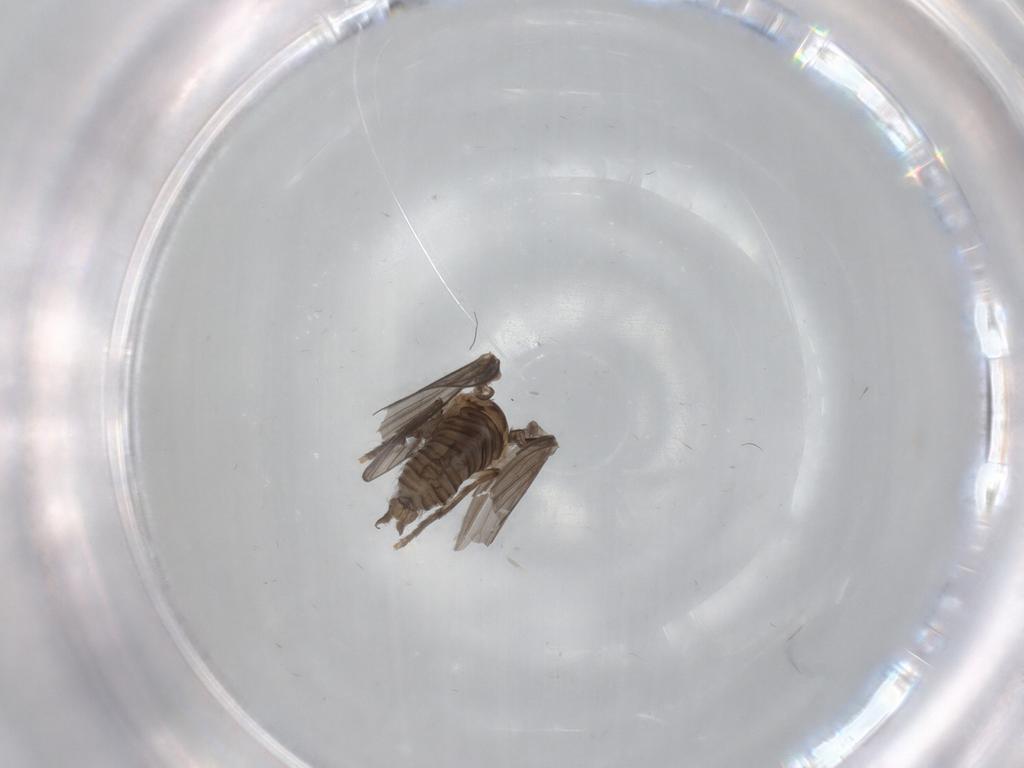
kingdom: Animalia
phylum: Arthropoda
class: Insecta
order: Diptera
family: Psychodidae
